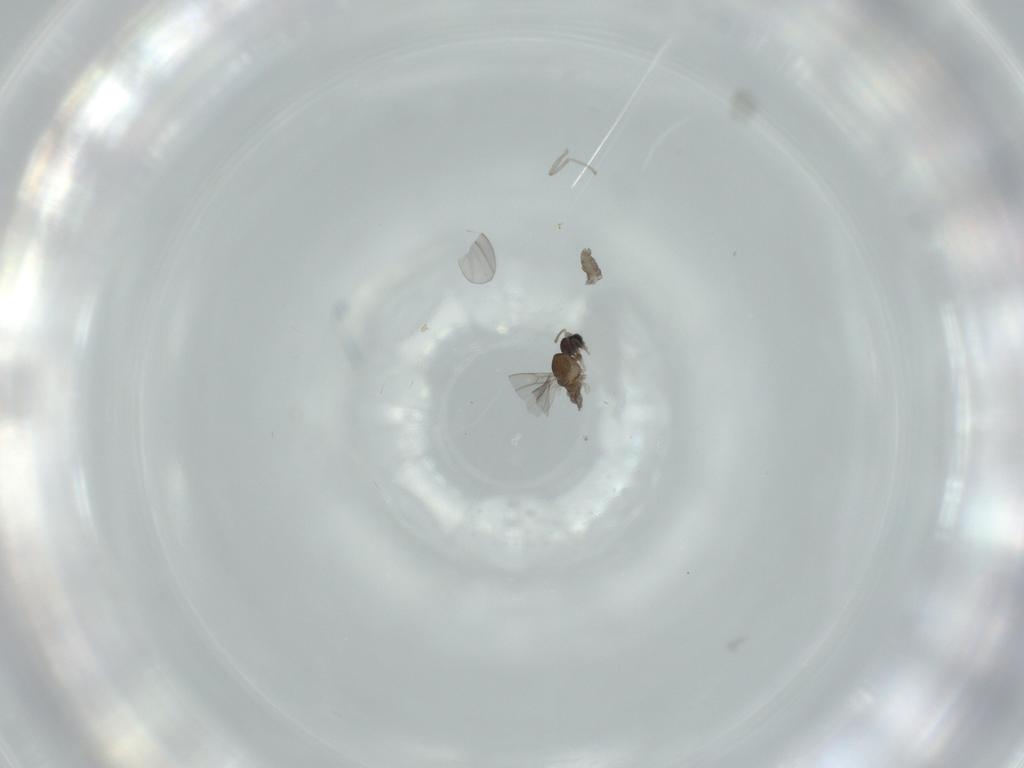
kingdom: Animalia
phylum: Arthropoda
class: Insecta
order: Diptera
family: Cecidomyiidae
